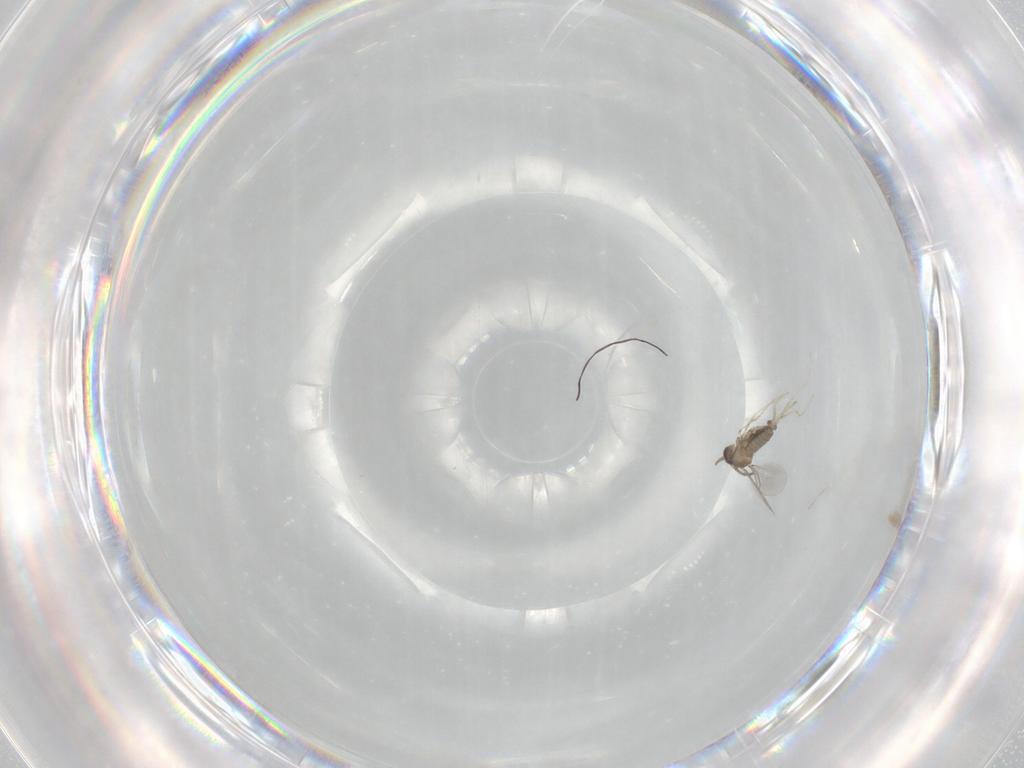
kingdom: Animalia
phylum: Arthropoda
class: Insecta
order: Diptera
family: Cecidomyiidae
